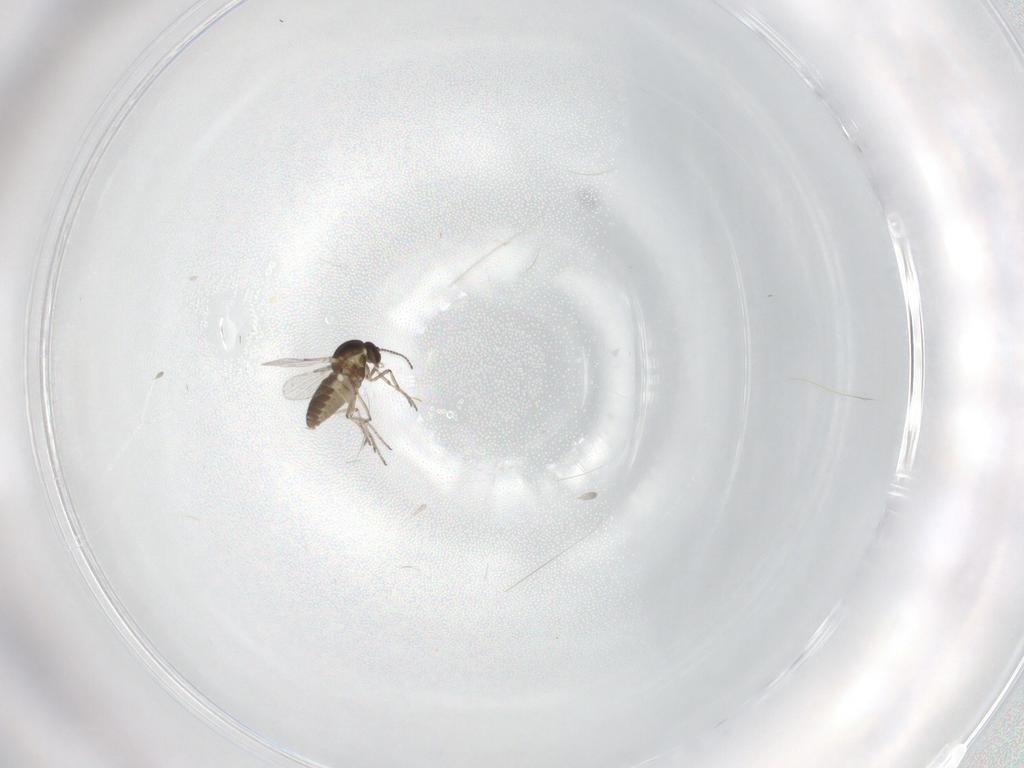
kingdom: Animalia
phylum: Arthropoda
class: Insecta
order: Diptera
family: Ceratopogonidae
